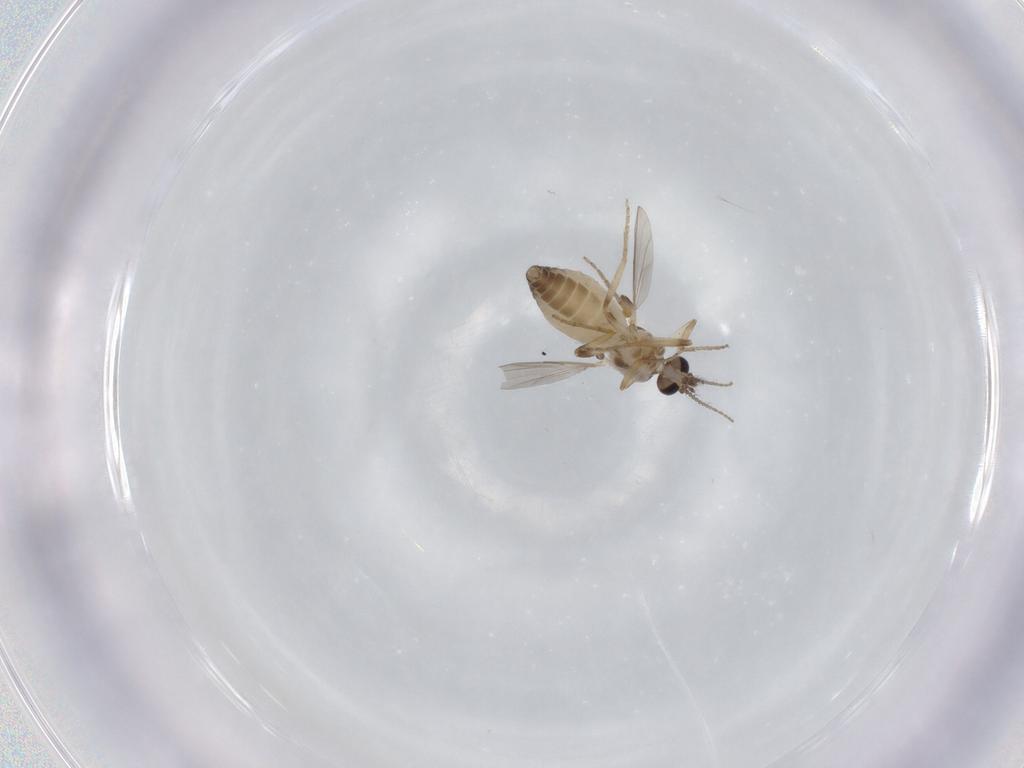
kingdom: Animalia
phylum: Arthropoda
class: Insecta
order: Diptera
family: Ceratopogonidae
